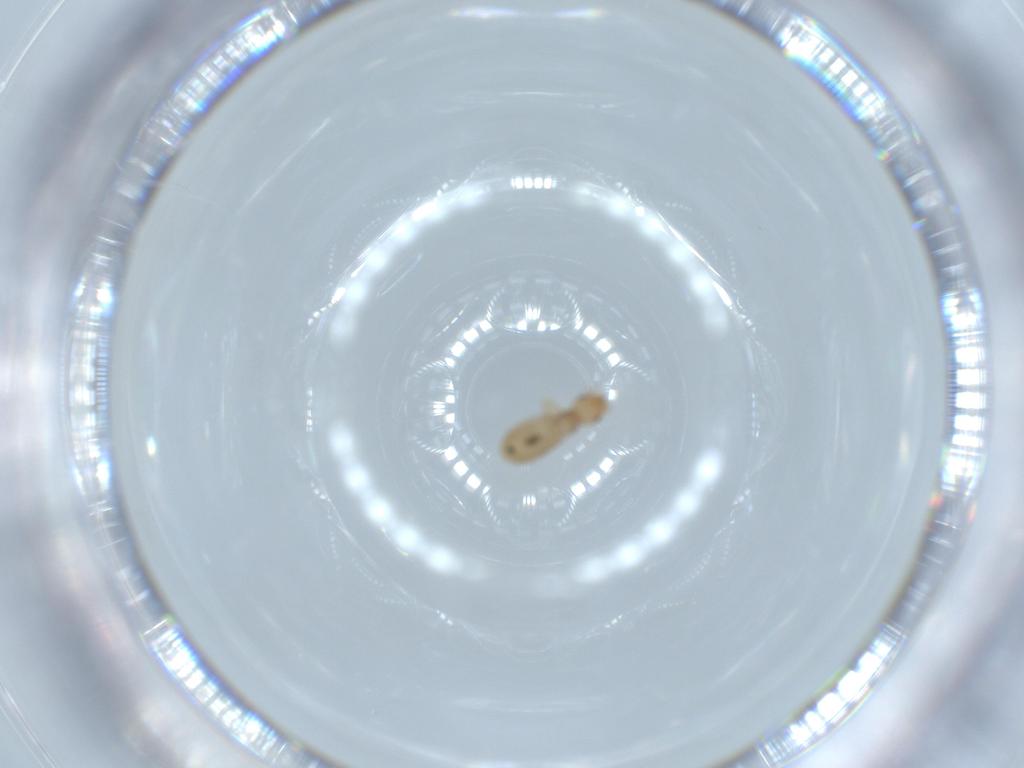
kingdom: Animalia
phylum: Arthropoda
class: Insecta
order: Psocodea
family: Liposcelididae
